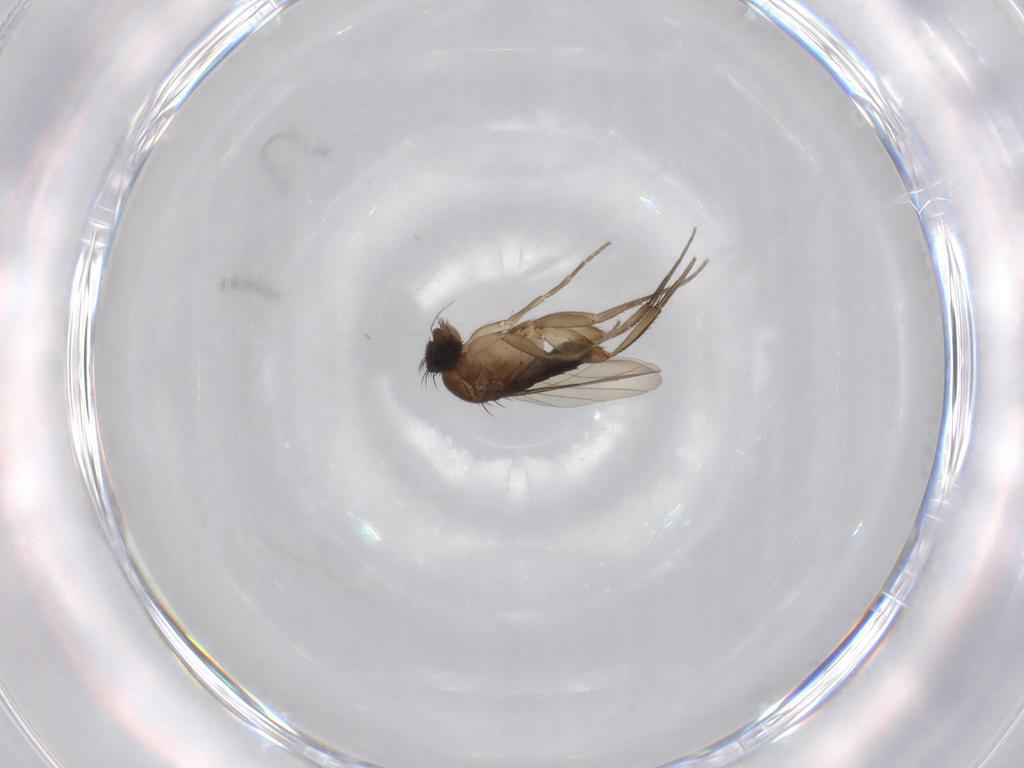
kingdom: Animalia
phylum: Arthropoda
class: Insecta
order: Diptera
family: Phoridae
